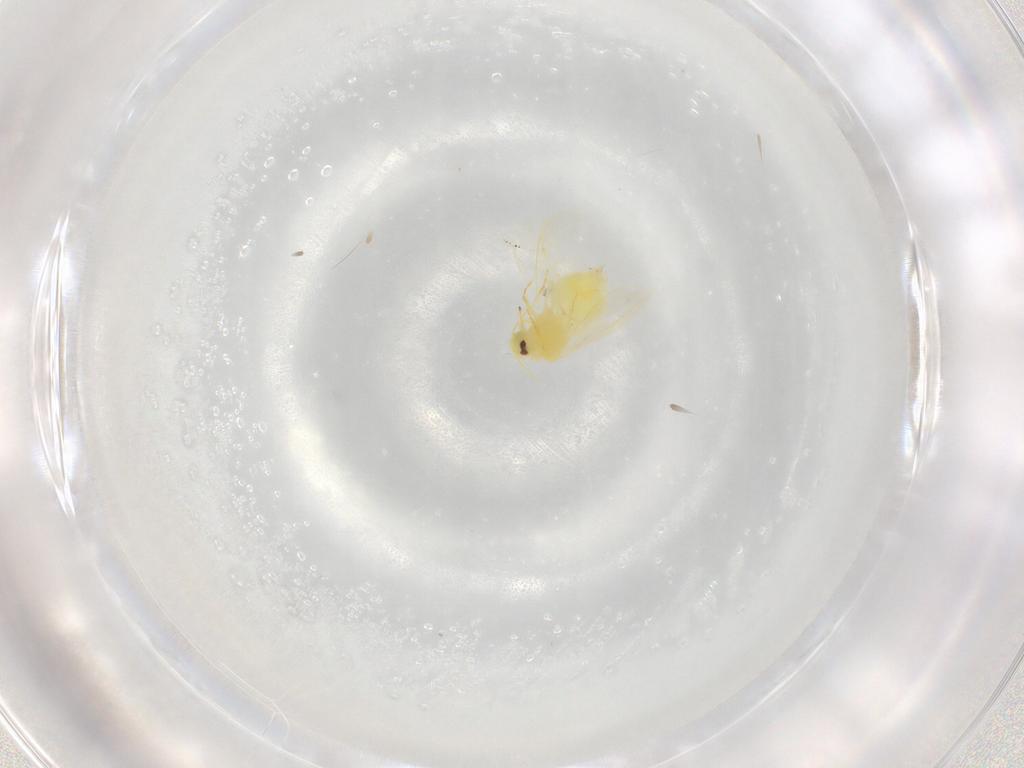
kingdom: Animalia
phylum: Arthropoda
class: Insecta
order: Hemiptera
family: Aleyrodidae
